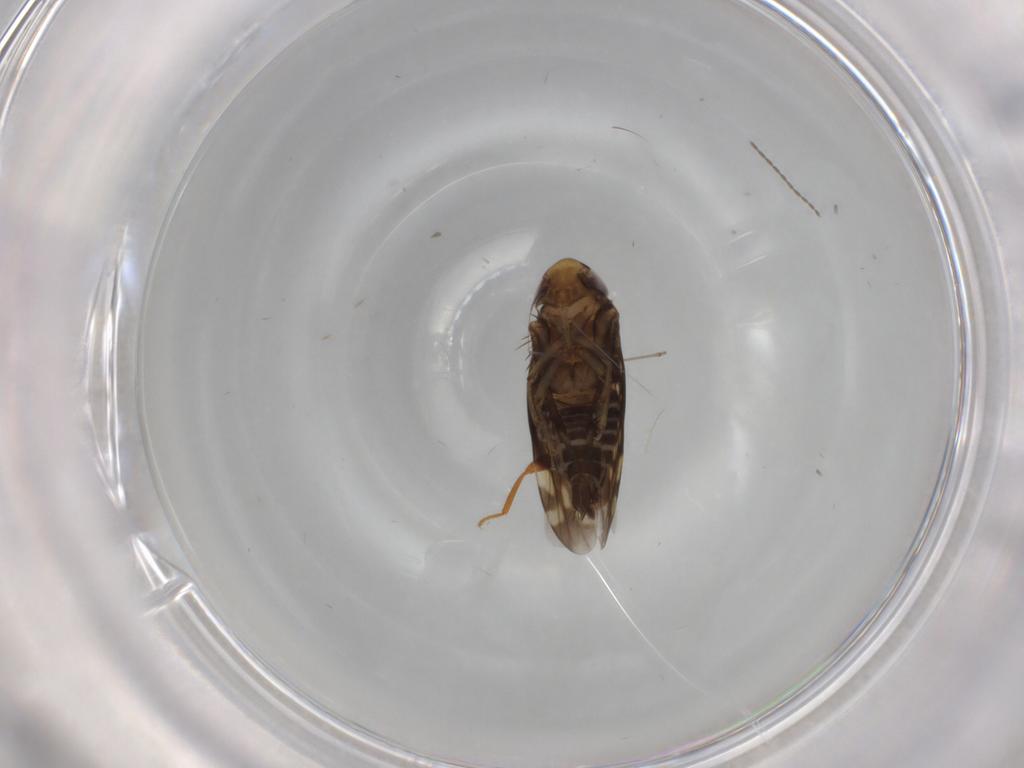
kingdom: Animalia
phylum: Arthropoda
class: Insecta
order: Hemiptera
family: Cicadellidae
